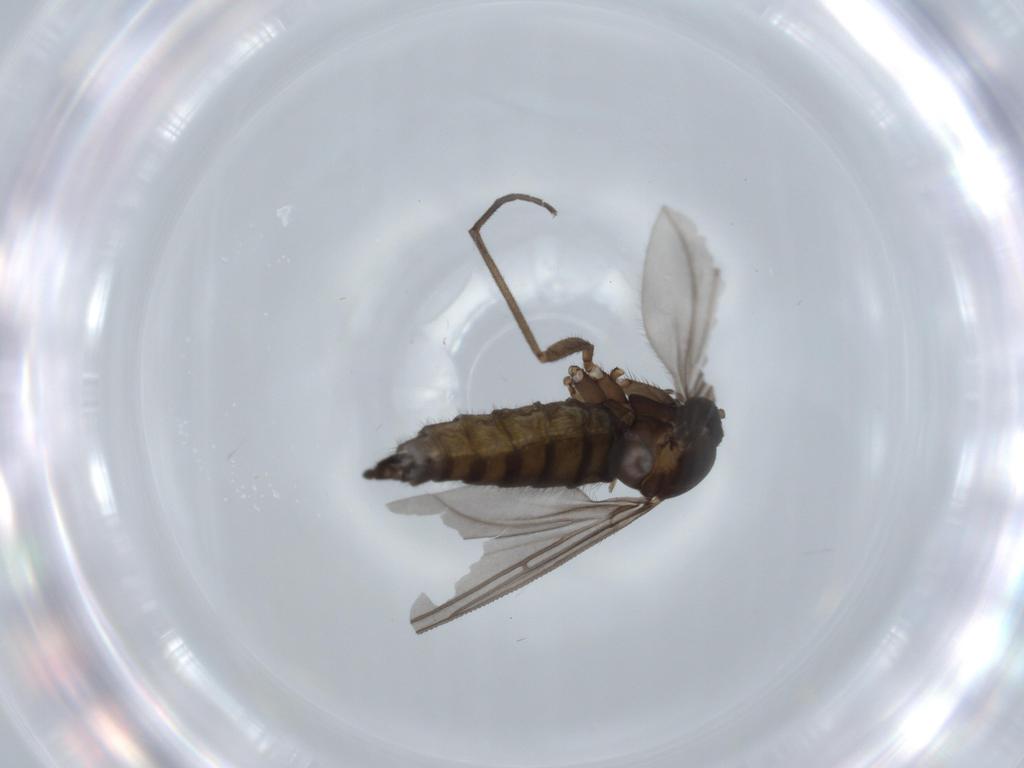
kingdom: Animalia
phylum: Arthropoda
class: Insecta
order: Diptera
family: Sciaridae
